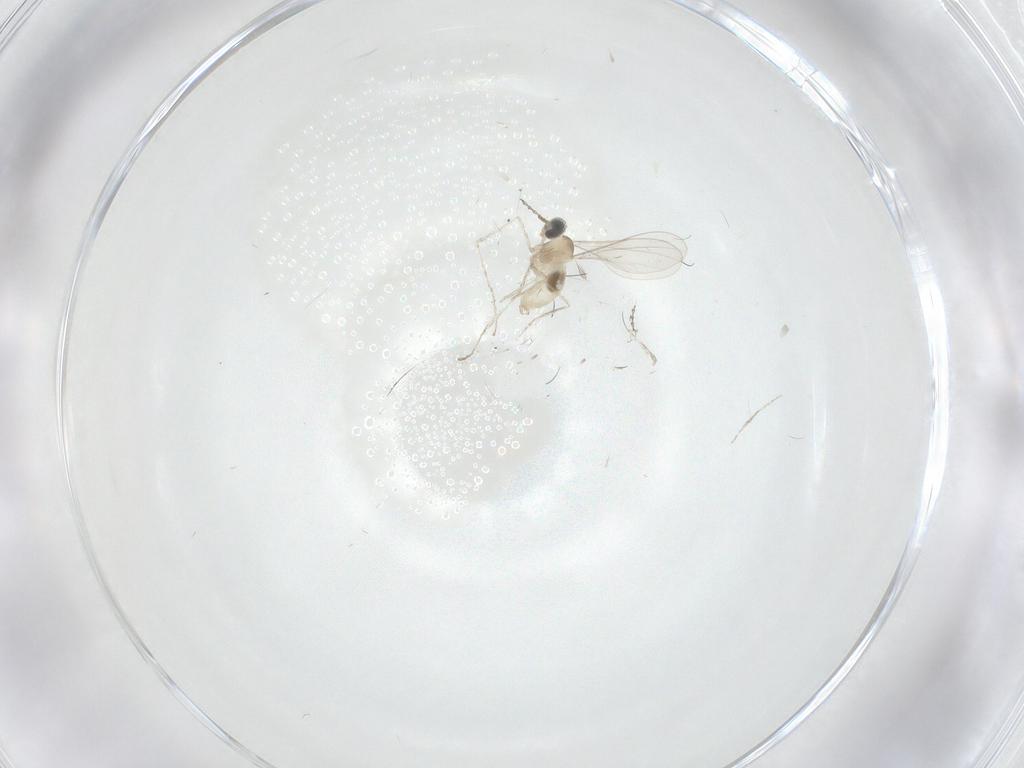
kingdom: Animalia
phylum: Arthropoda
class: Insecta
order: Diptera
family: Cecidomyiidae
